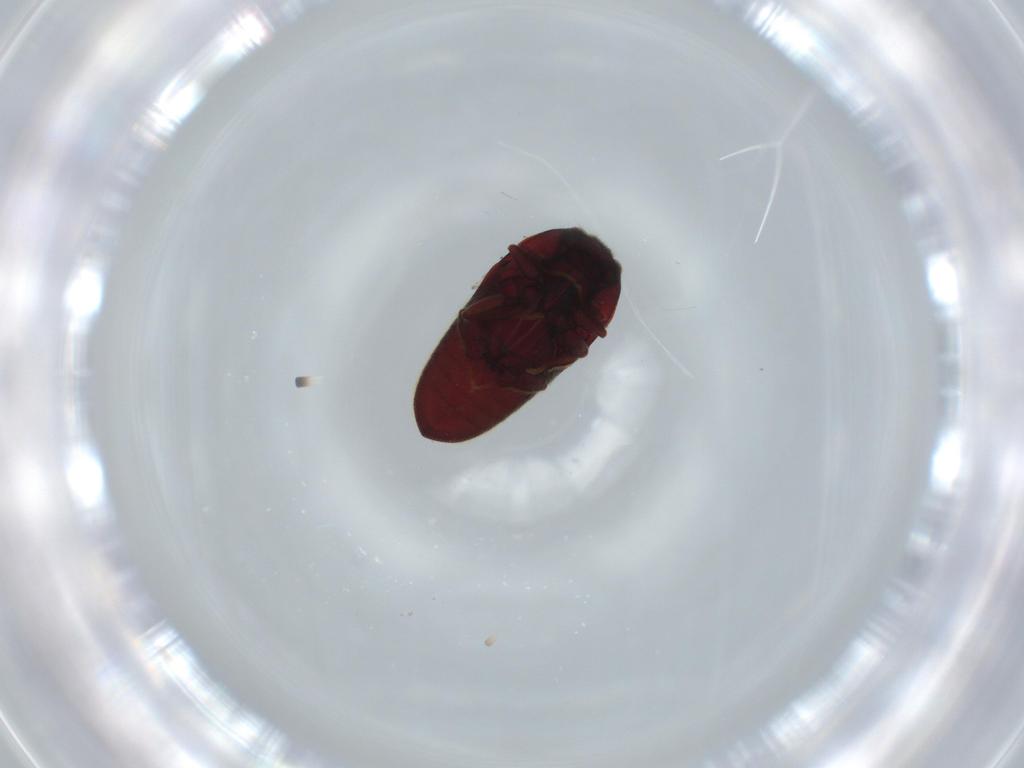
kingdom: Animalia
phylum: Arthropoda
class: Insecta
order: Coleoptera
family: Throscidae
